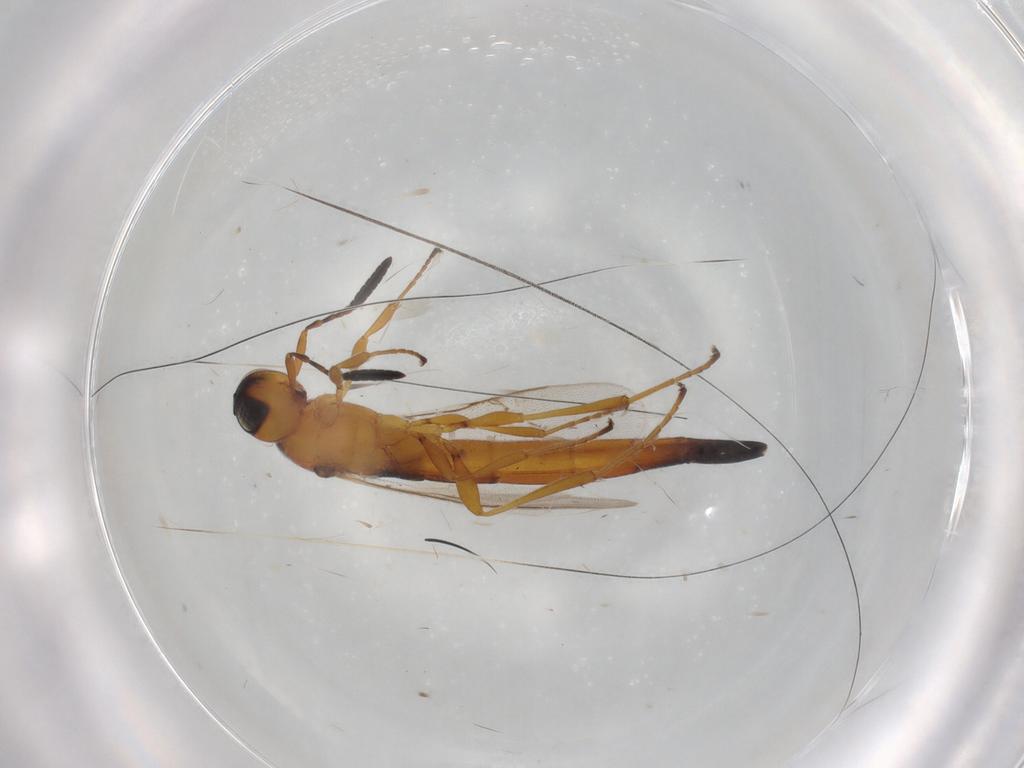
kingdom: Animalia
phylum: Arthropoda
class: Insecta
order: Hymenoptera
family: Scelionidae
